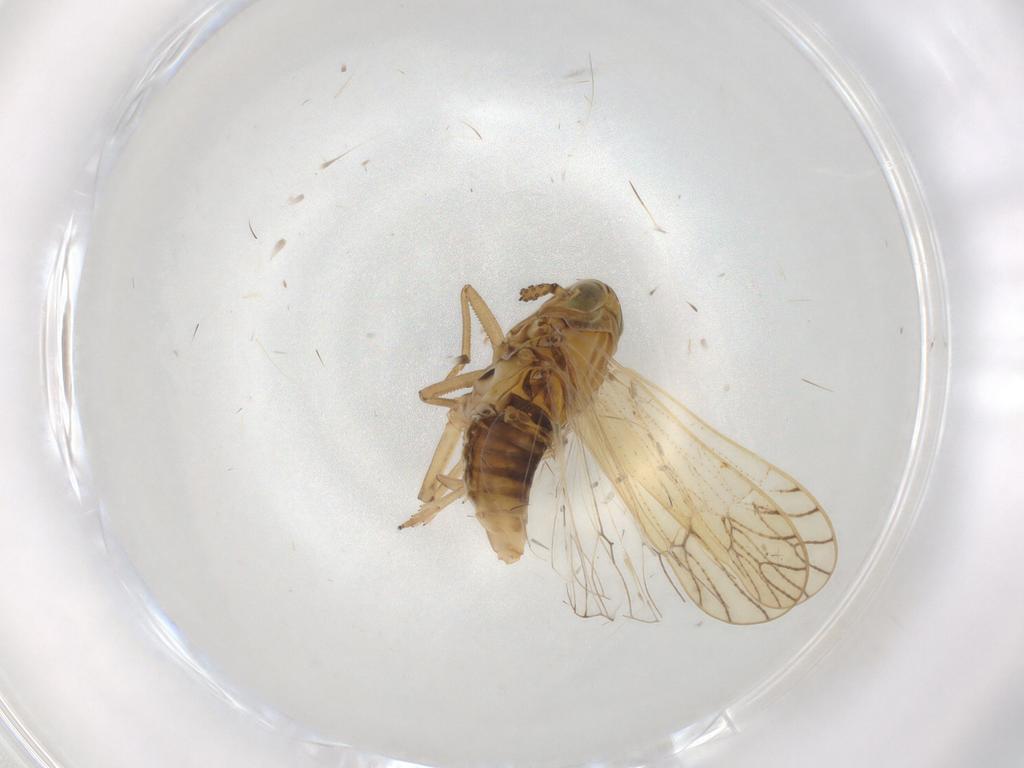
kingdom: Animalia
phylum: Arthropoda
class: Insecta
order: Hemiptera
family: Delphacidae
